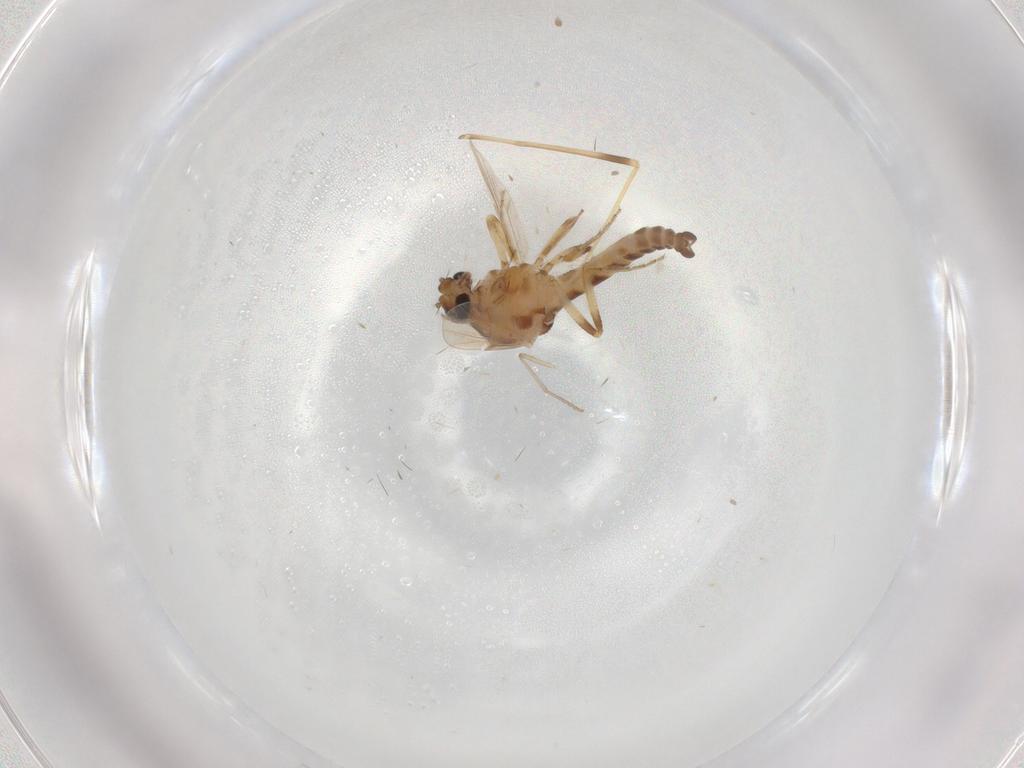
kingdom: Animalia
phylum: Arthropoda
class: Insecta
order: Diptera
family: Ceratopogonidae
